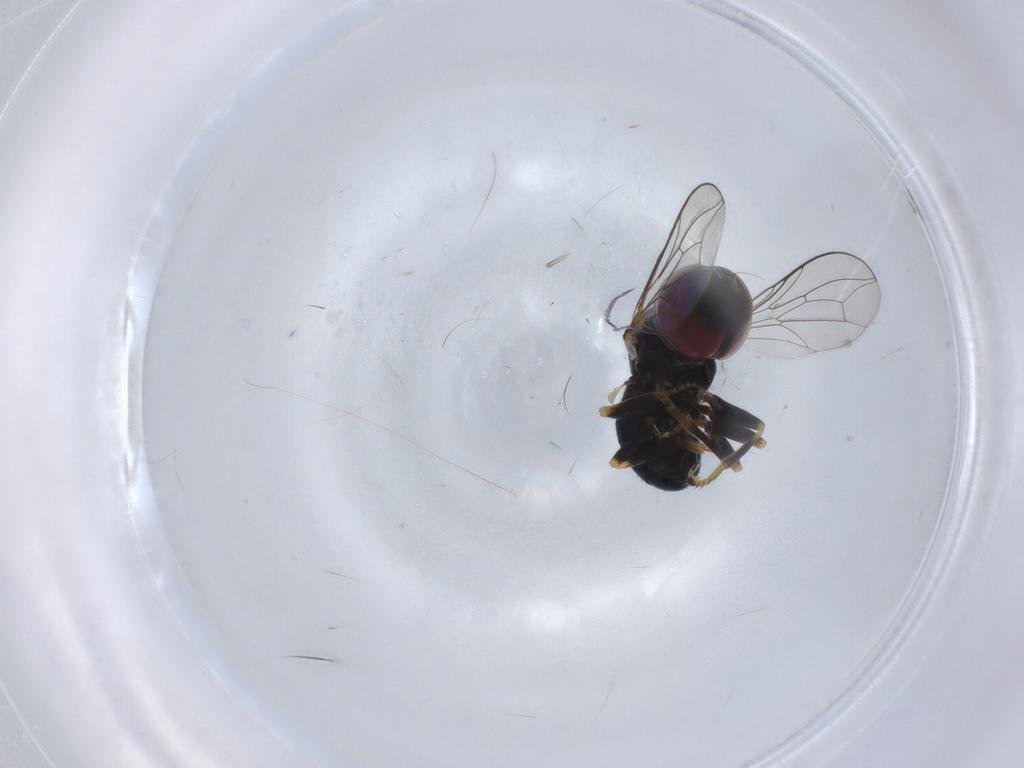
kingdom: Animalia
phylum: Arthropoda
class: Insecta
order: Diptera
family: Pipunculidae
